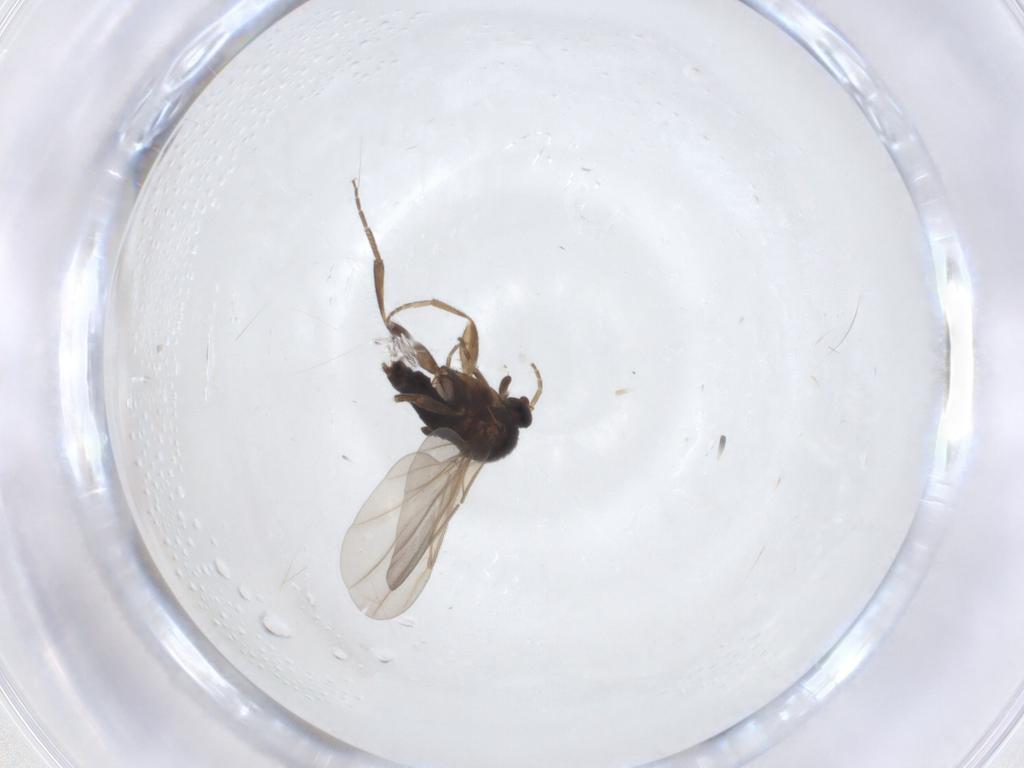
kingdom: Animalia
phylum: Arthropoda
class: Insecta
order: Diptera
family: Phoridae
